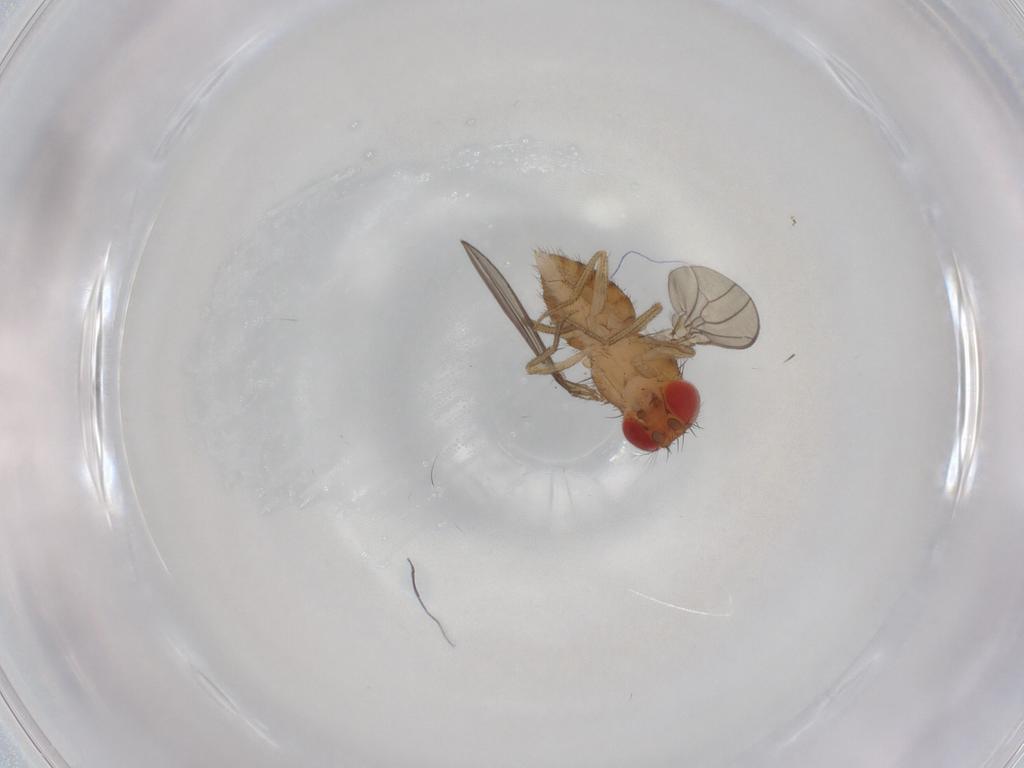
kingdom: Animalia
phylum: Arthropoda
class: Insecta
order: Diptera
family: Drosophilidae
